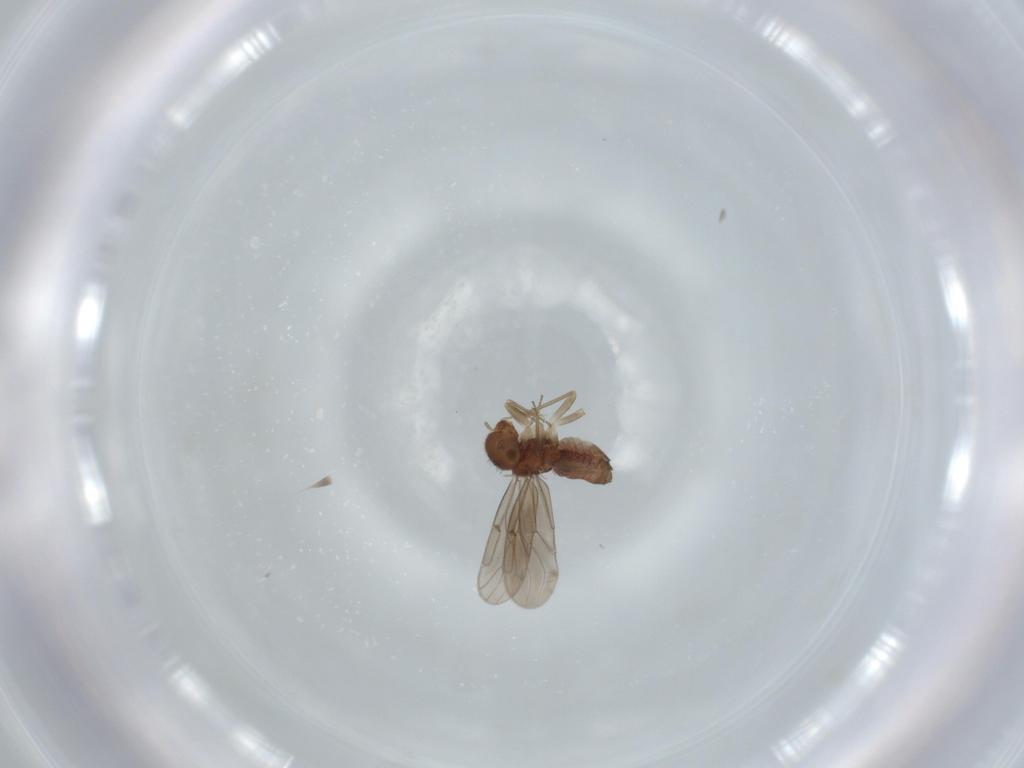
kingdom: Animalia
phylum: Arthropoda
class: Insecta
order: Psocodea
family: Ectopsocidae
